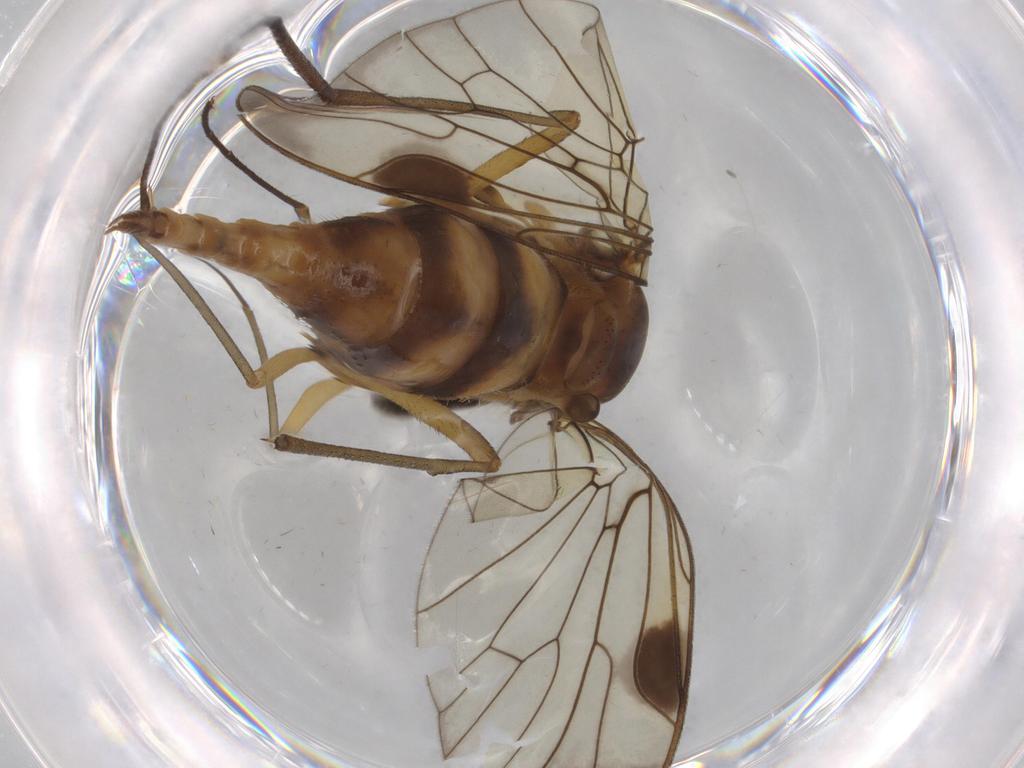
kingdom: Animalia
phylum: Arthropoda
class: Insecta
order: Diptera
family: Chironomidae
